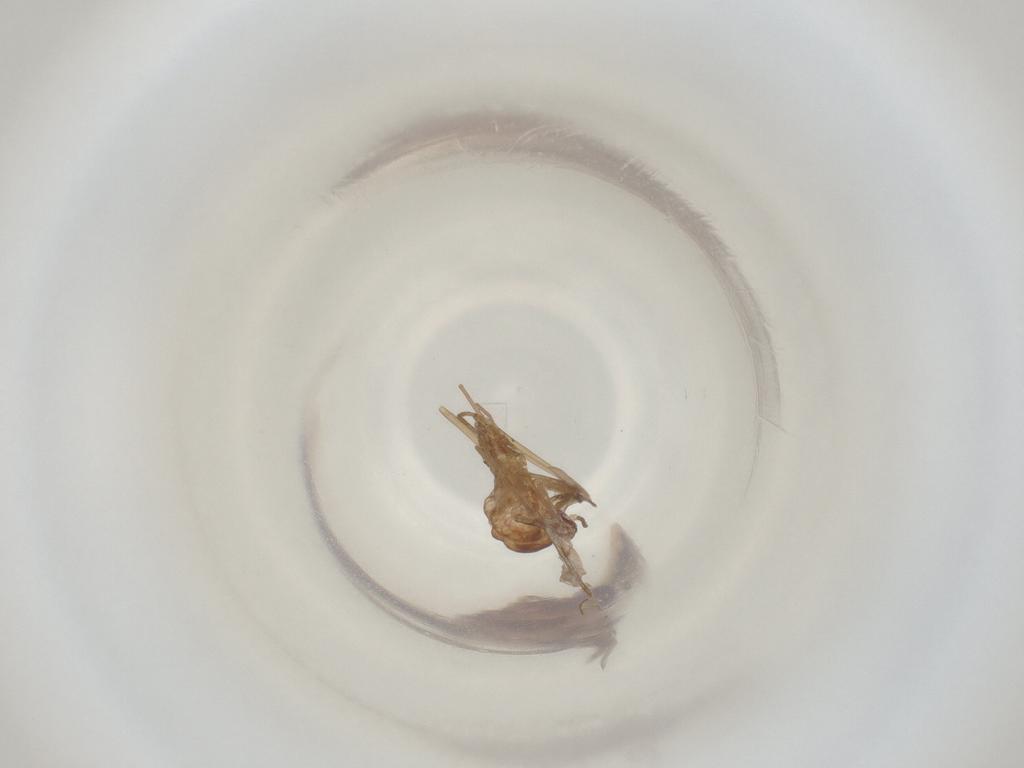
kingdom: Animalia
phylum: Arthropoda
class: Insecta
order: Diptera
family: Cecidomyiidae
